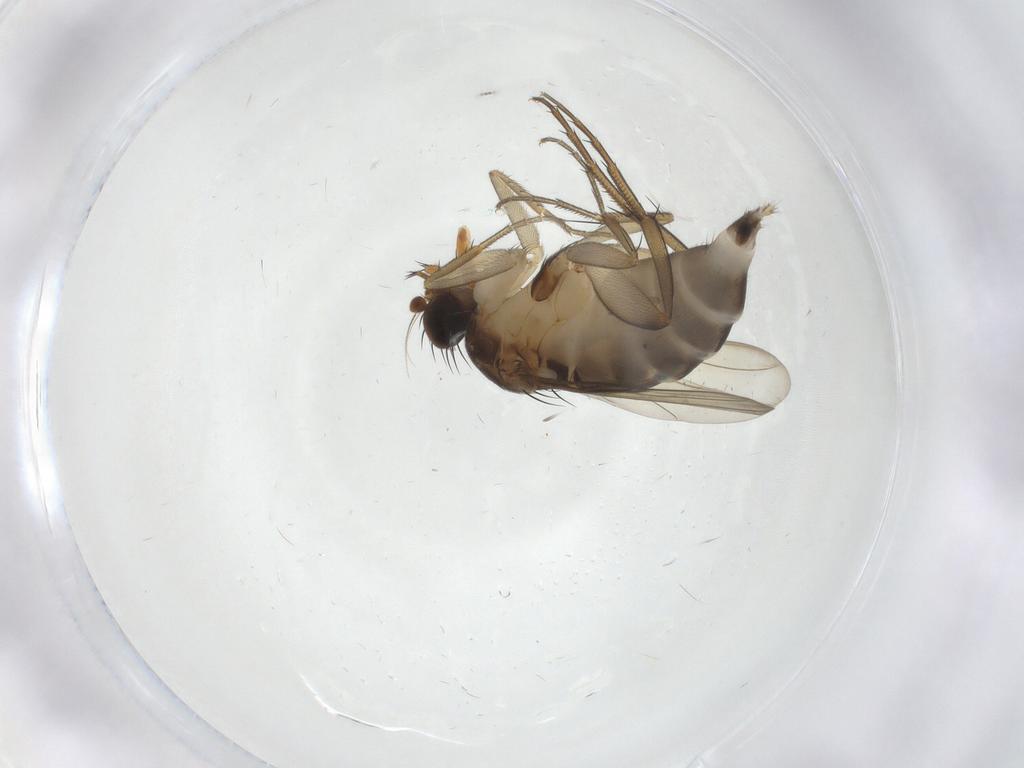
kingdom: Animalia
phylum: Arthropoda
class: Insecta
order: Diptera
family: Phoridae
